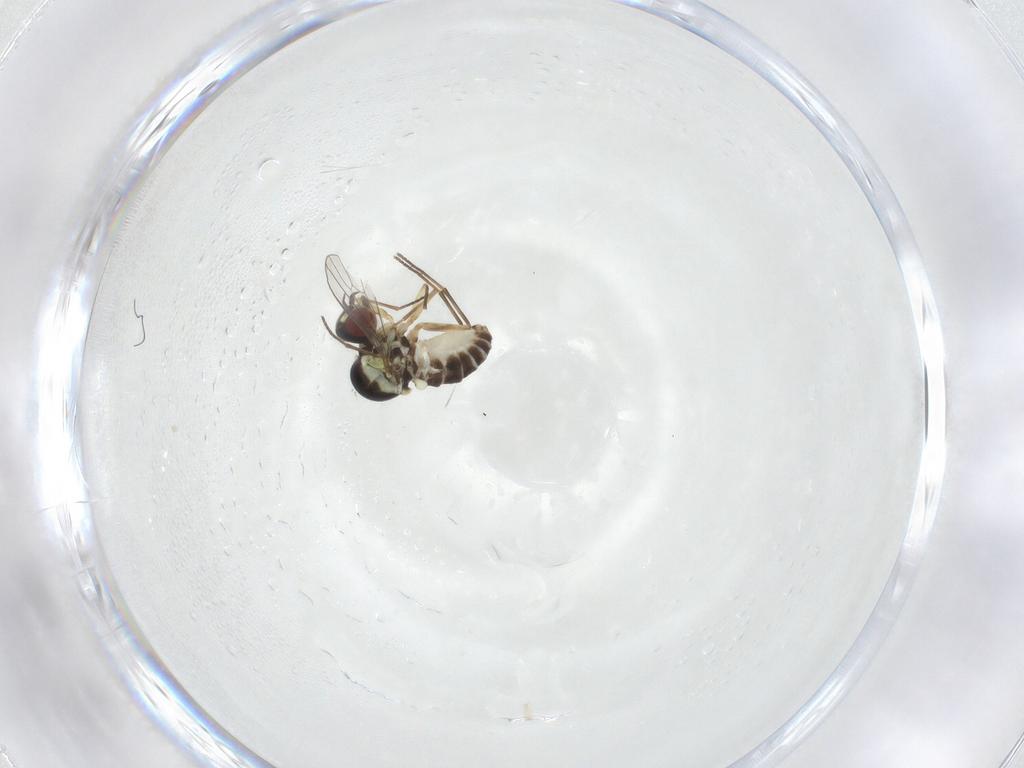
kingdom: Animalia
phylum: Arthropoda
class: Insecta
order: Diptera
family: Bombyliidae
